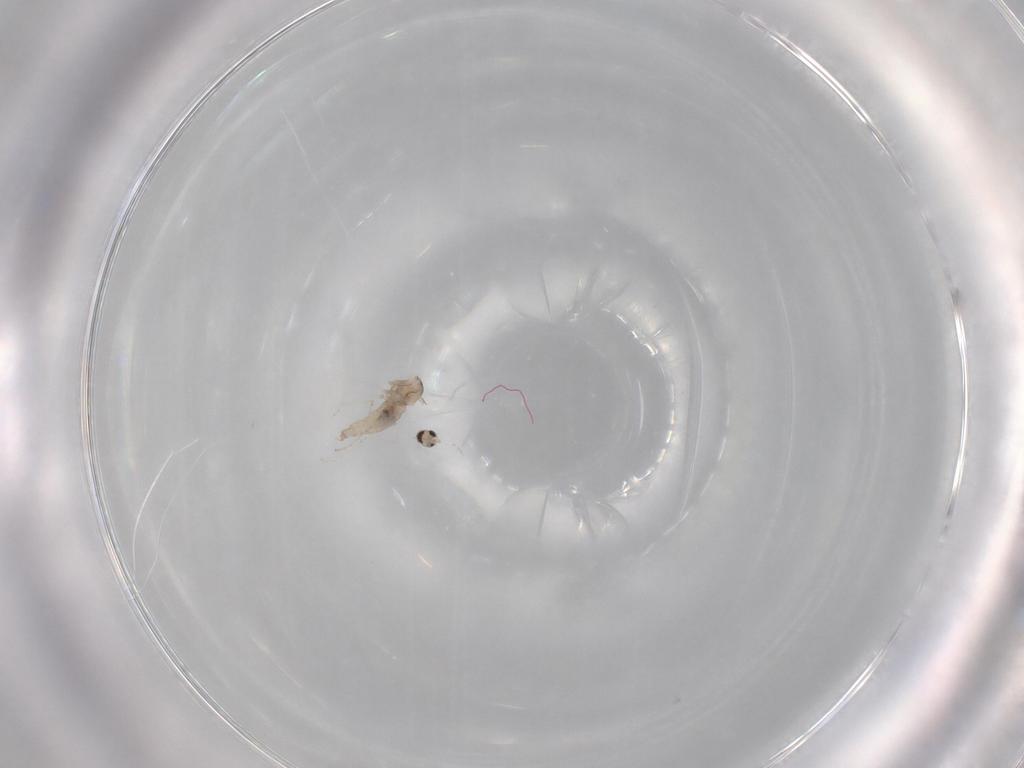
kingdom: Animalia
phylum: Arthropoda
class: Insecta
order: Diptera
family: Cecidomyiidae
